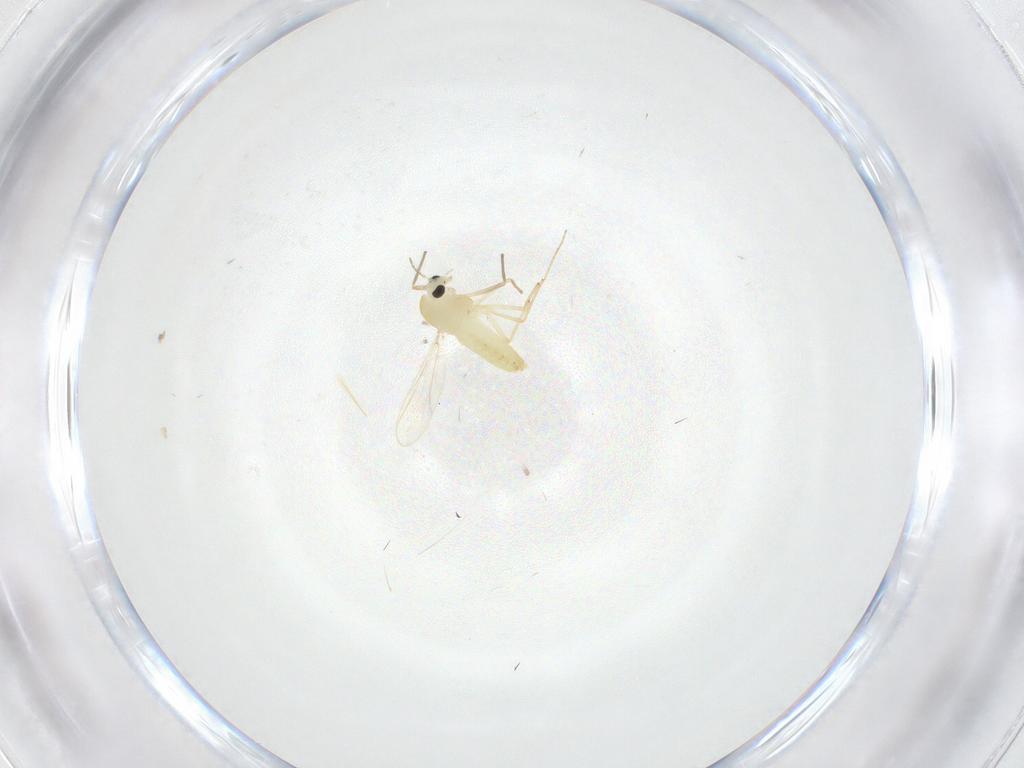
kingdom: Animalia
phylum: Arthropoda
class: Insecta
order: Diptera
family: Chironomidae
